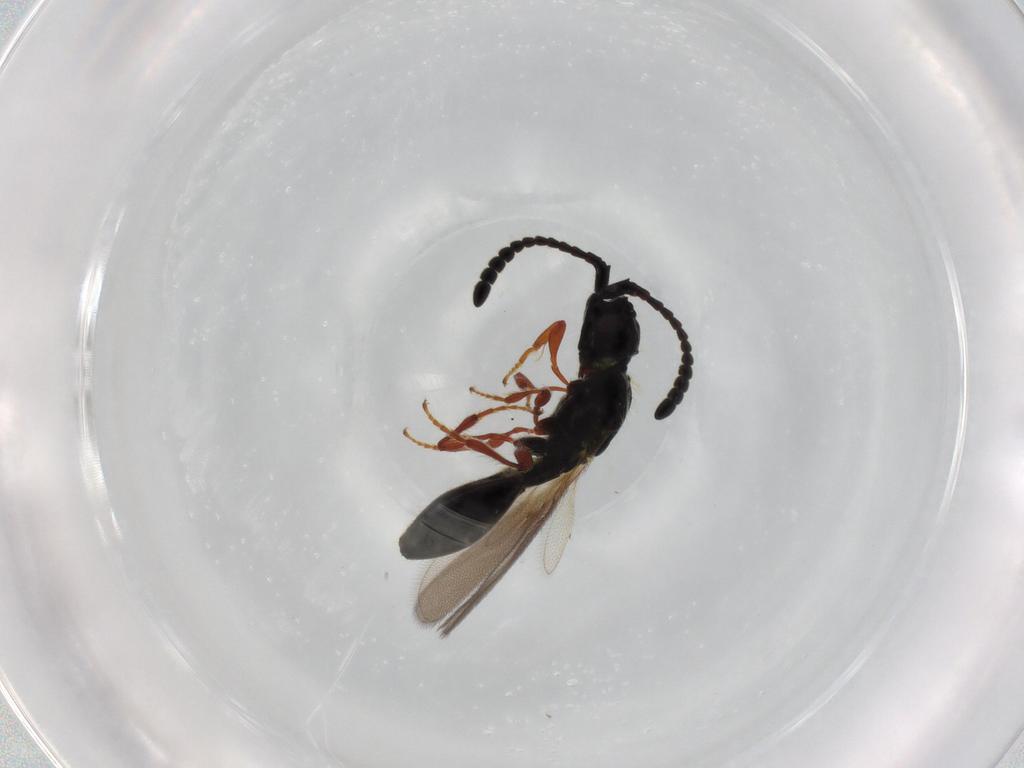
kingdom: Animalia
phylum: Arthropoda
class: Insecta
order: Hymenoptera
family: Diapriidae
